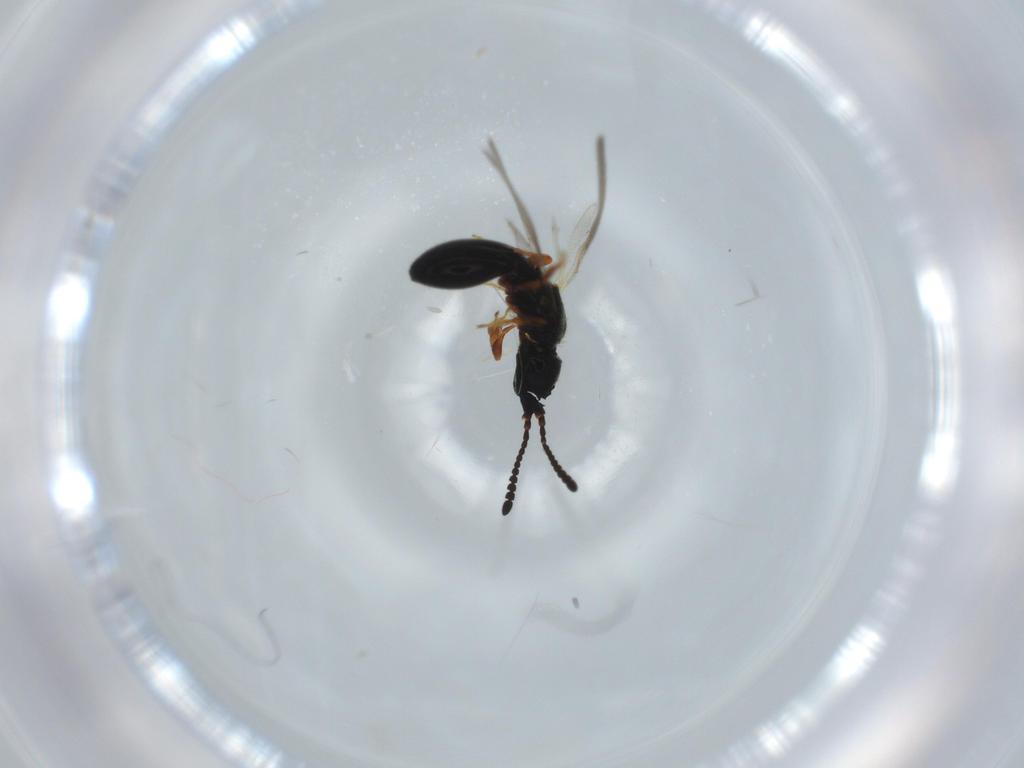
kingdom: Animalia
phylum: Arthropoda
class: Insecta
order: Hymenoptera
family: Diapriidae
